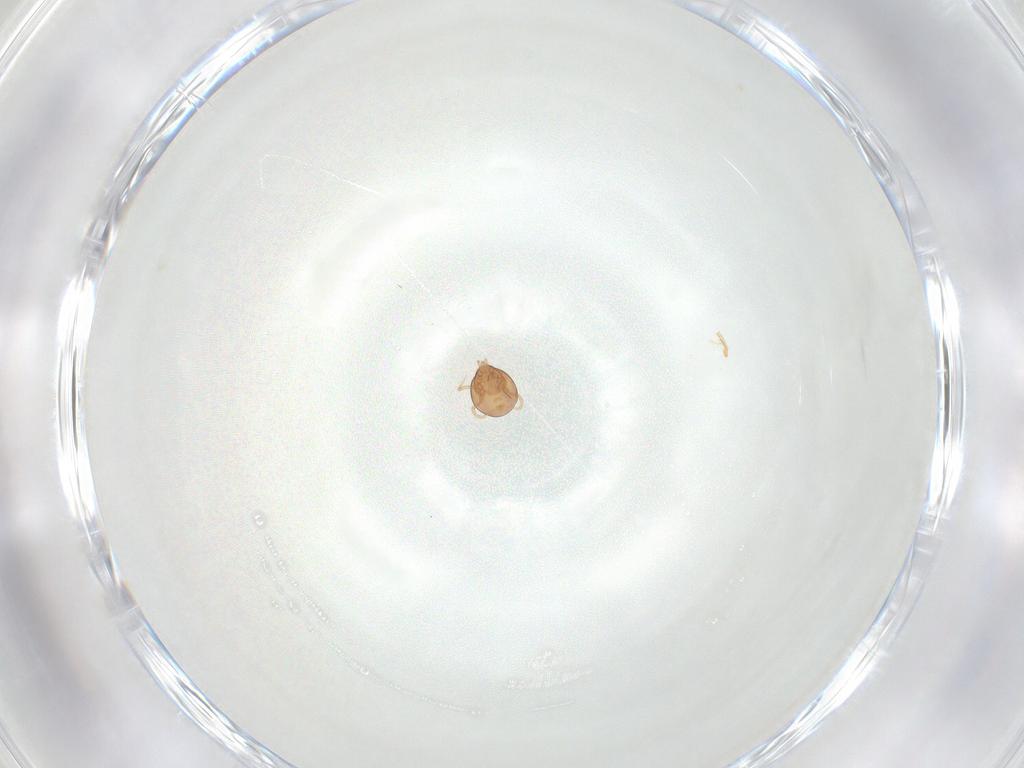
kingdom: Animalia
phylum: Arthropoda
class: Arachnida
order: Mesostigmata
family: Phytoseiidae
